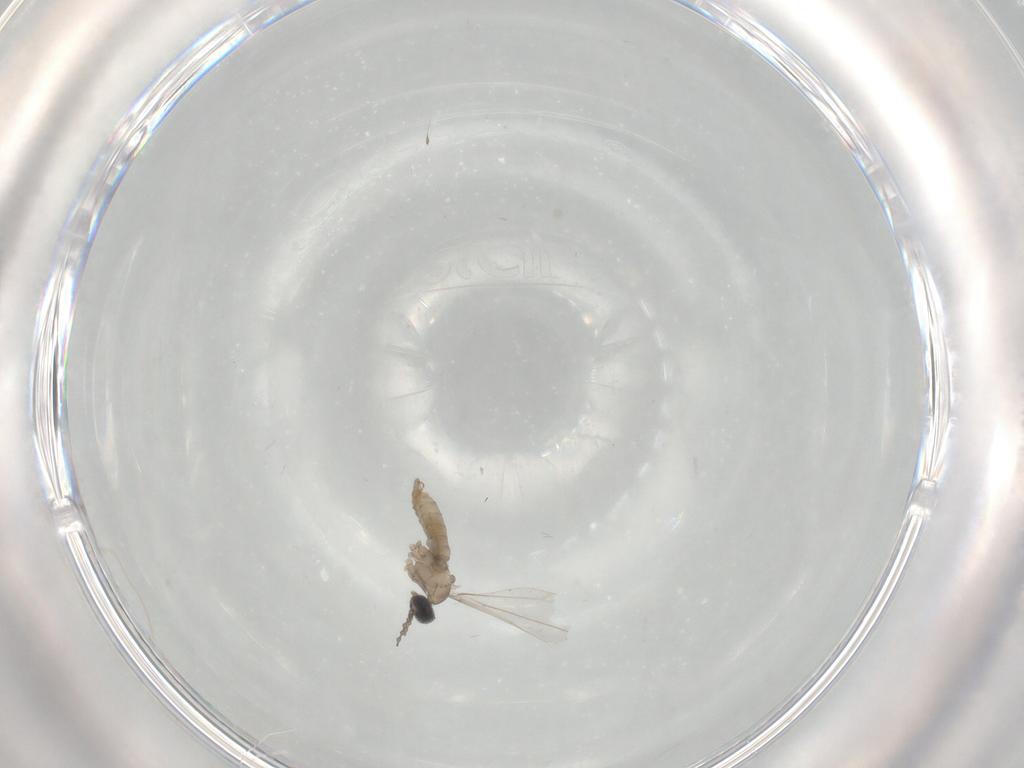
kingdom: Animalia
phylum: Arthropoda
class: Insecta
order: Diptera
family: Cecidomyiidae
